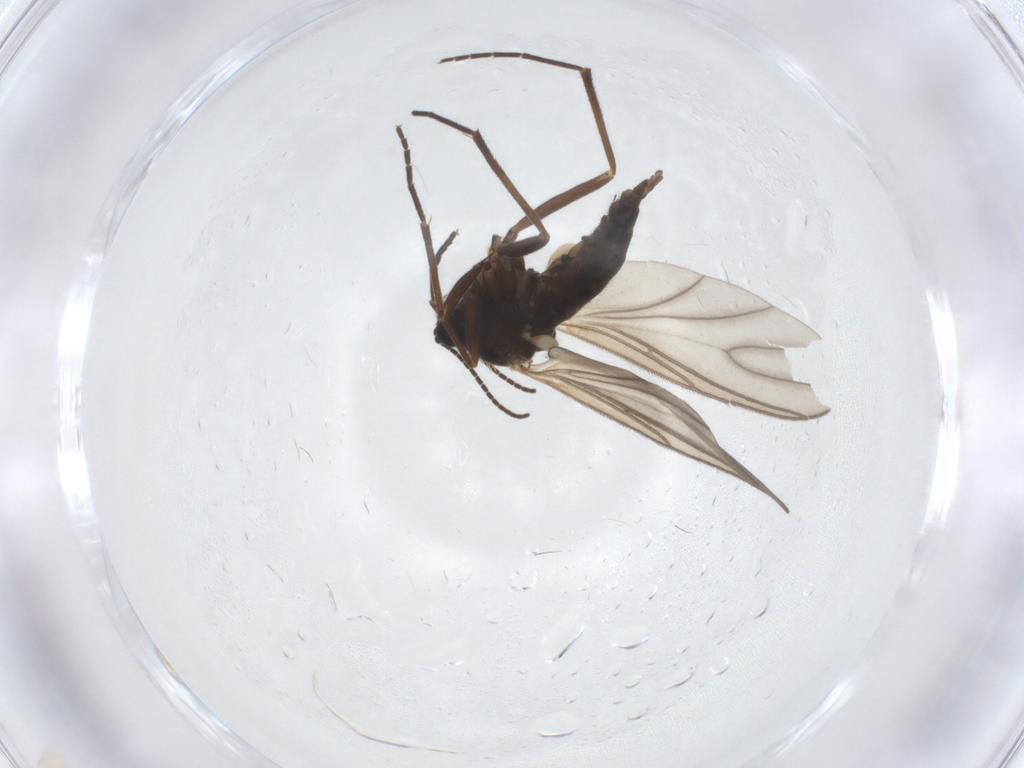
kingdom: Animalia
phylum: Arthropoda
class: Insecta
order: Diptera
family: Sciaridae
